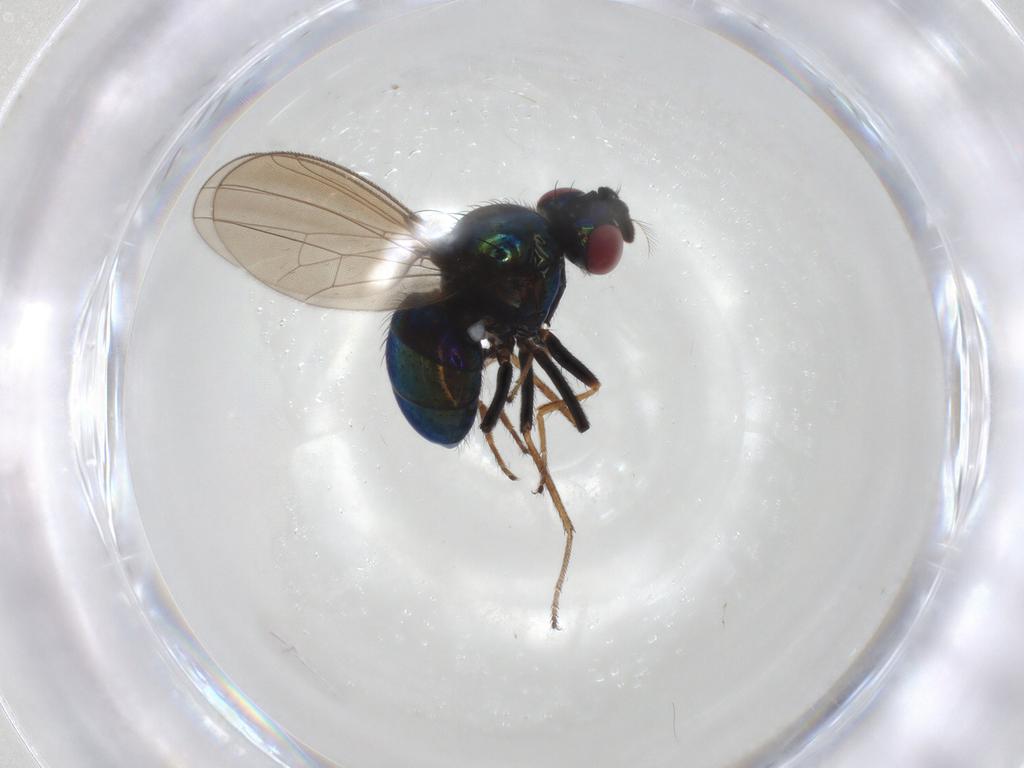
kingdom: Animalia
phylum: Arthropoda
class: Insecta
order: Diptera
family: Ephydridae
